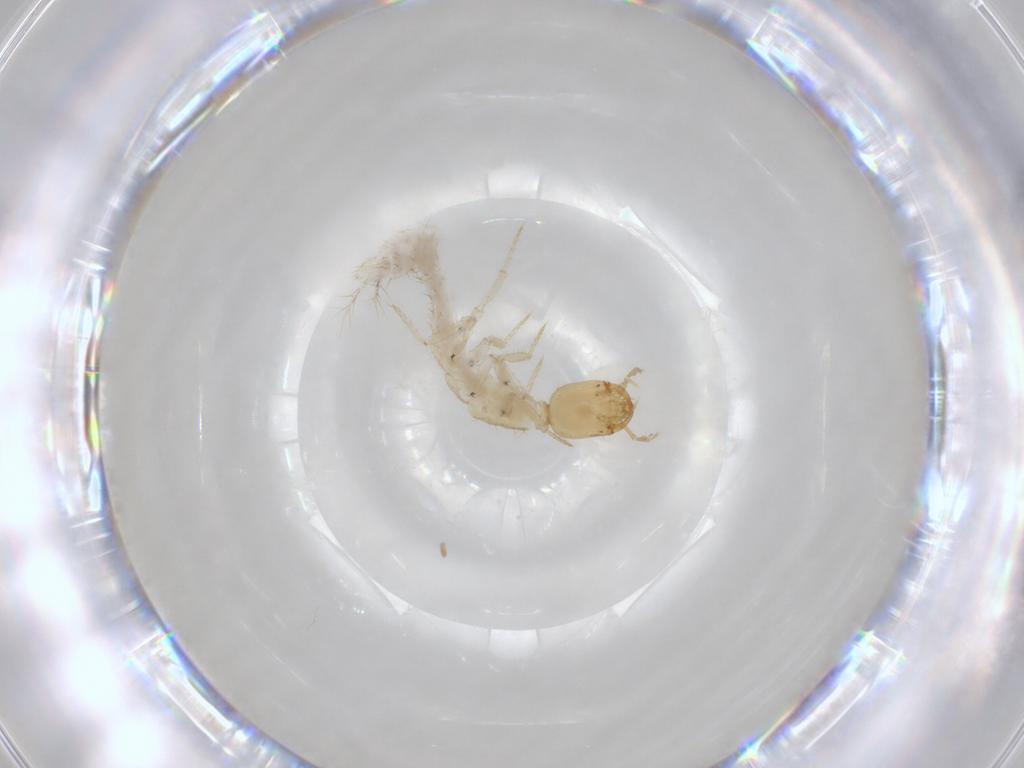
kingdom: Animalia
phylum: Arthropoda
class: Insecta
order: Coleoptera
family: Staphylinidae
